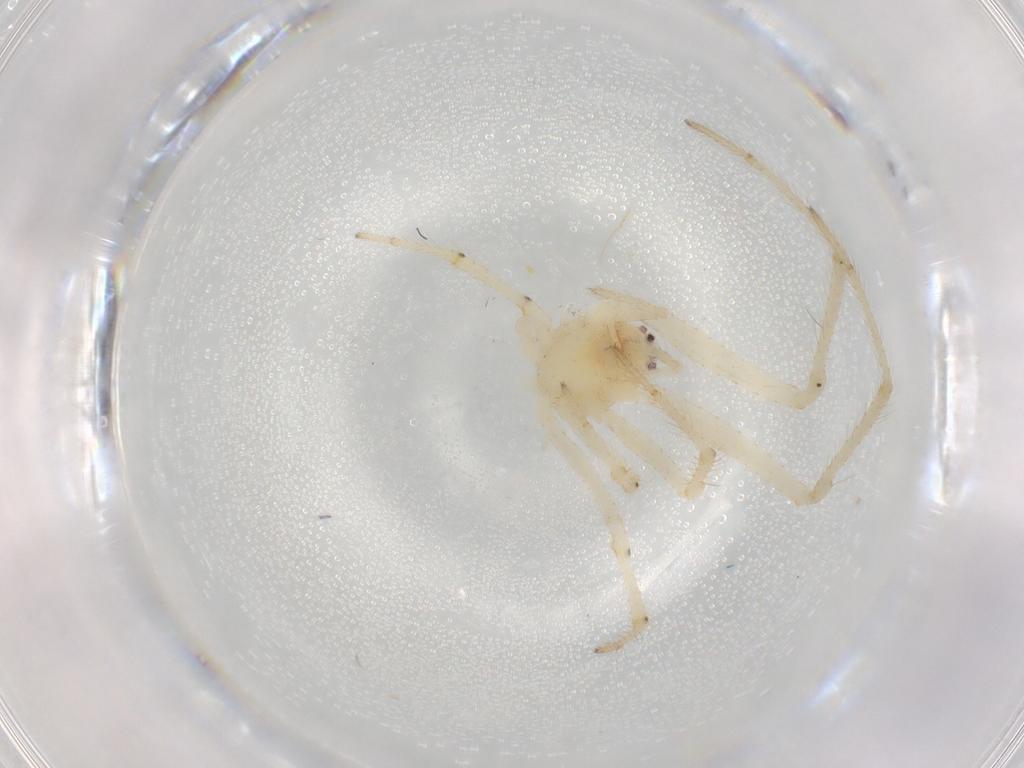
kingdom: Animalia
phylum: Arthropoda
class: Arachnida
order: Araneae
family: Theridiidae
